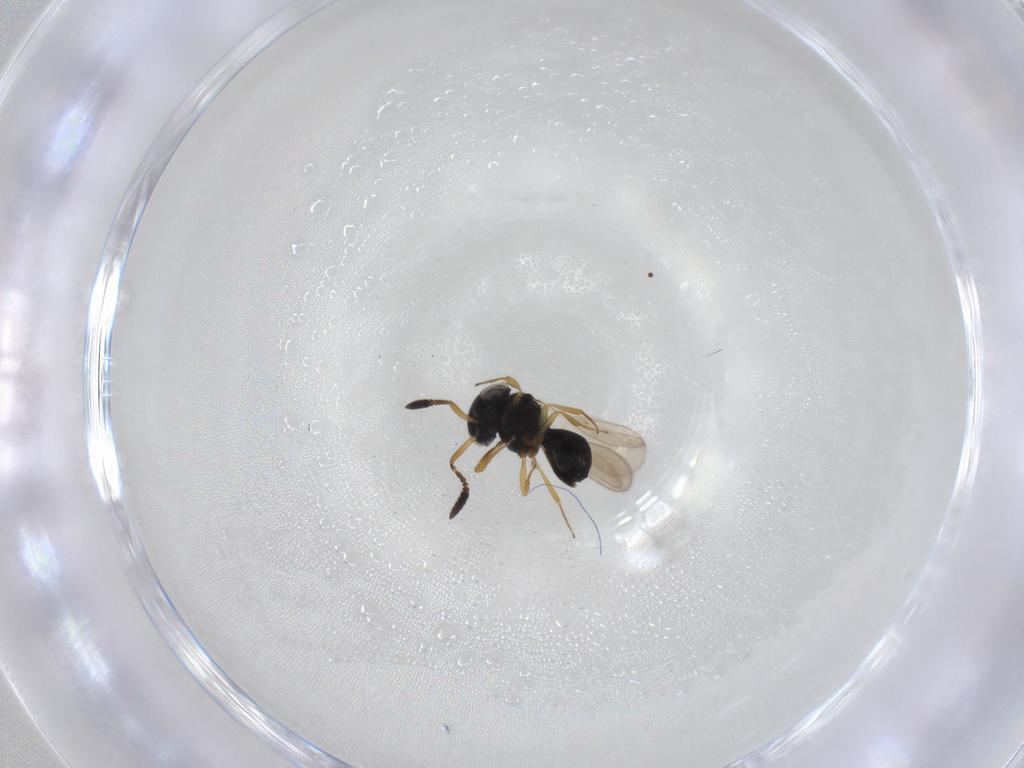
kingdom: Animalia
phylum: Arthropoda
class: Insecta
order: Hymenoptera
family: Scelionidae
